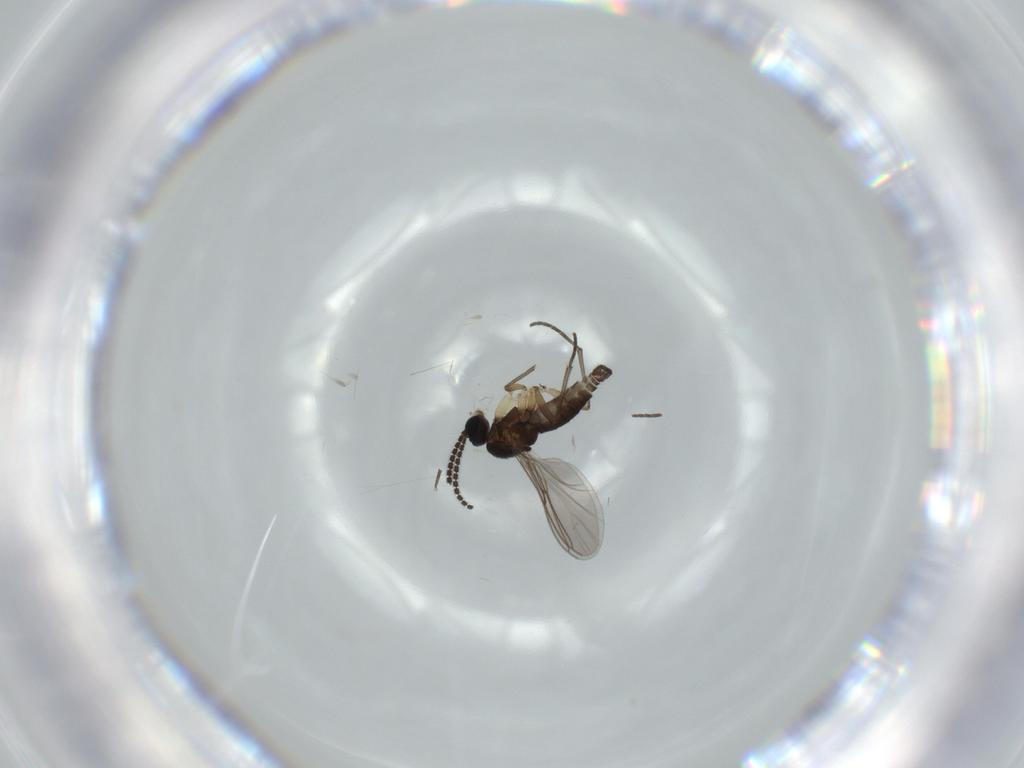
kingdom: Animalia
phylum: Arthropoda
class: Insecta
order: Diptera
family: Sciaridae
